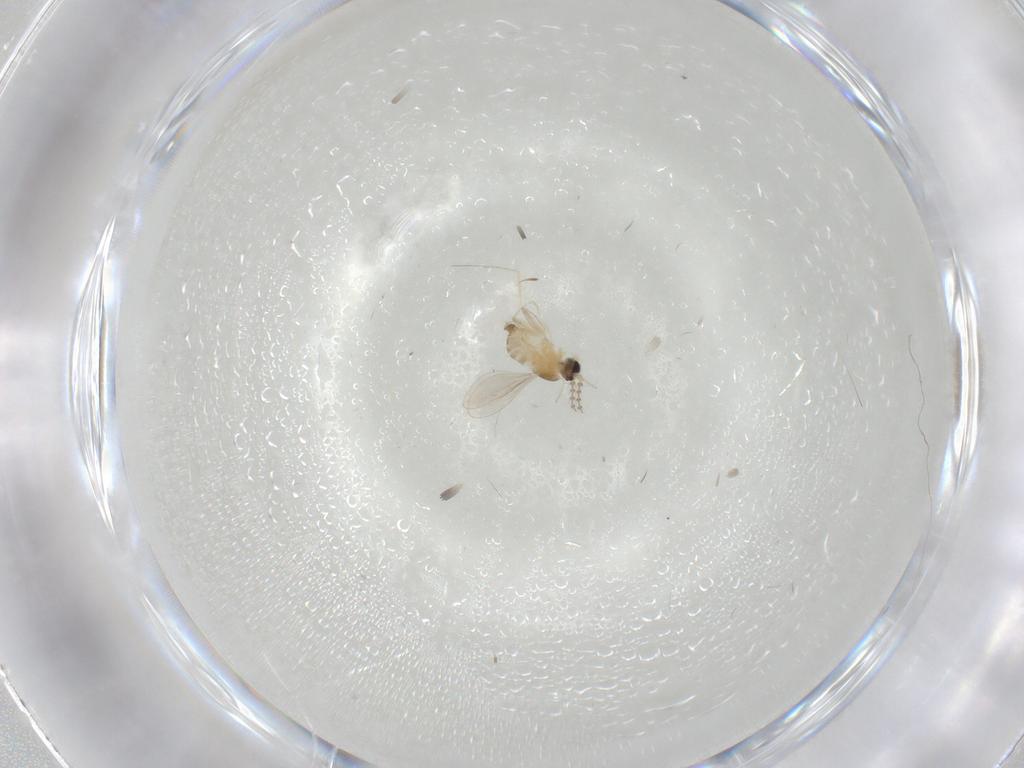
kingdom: Animalia
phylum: Arthropoda
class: Insecta
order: Diptera
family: Cecidomyiidae
